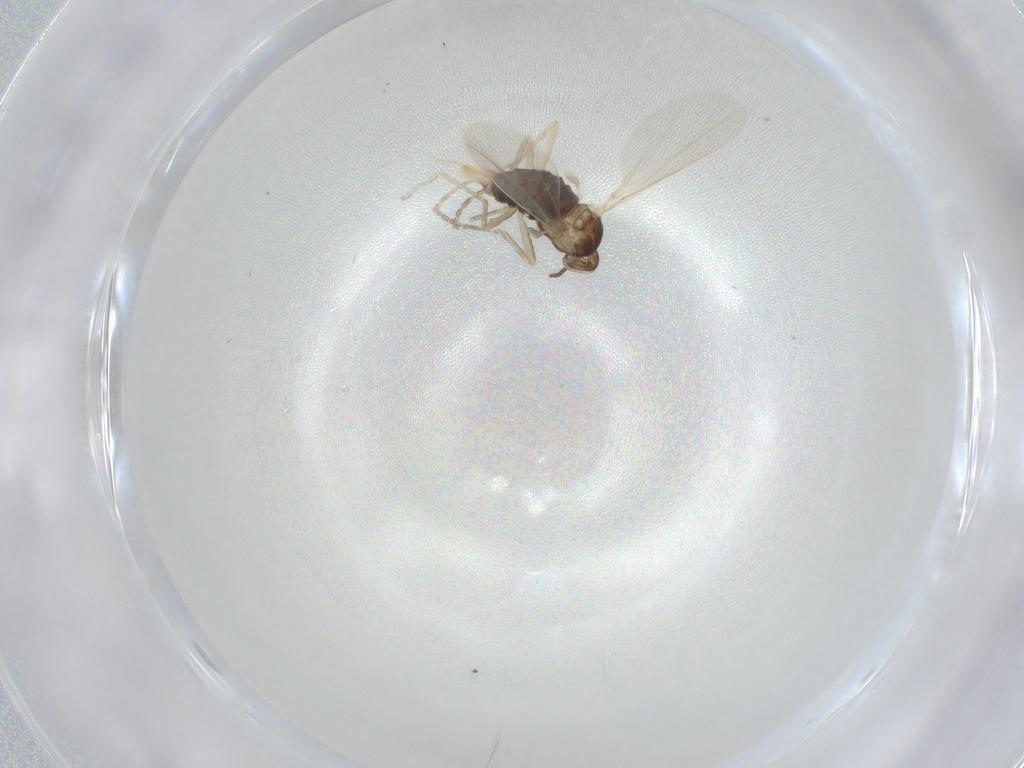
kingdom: Animalia
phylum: Arthropoda
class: Insecta
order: Diptera
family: Cecidomyiidae
